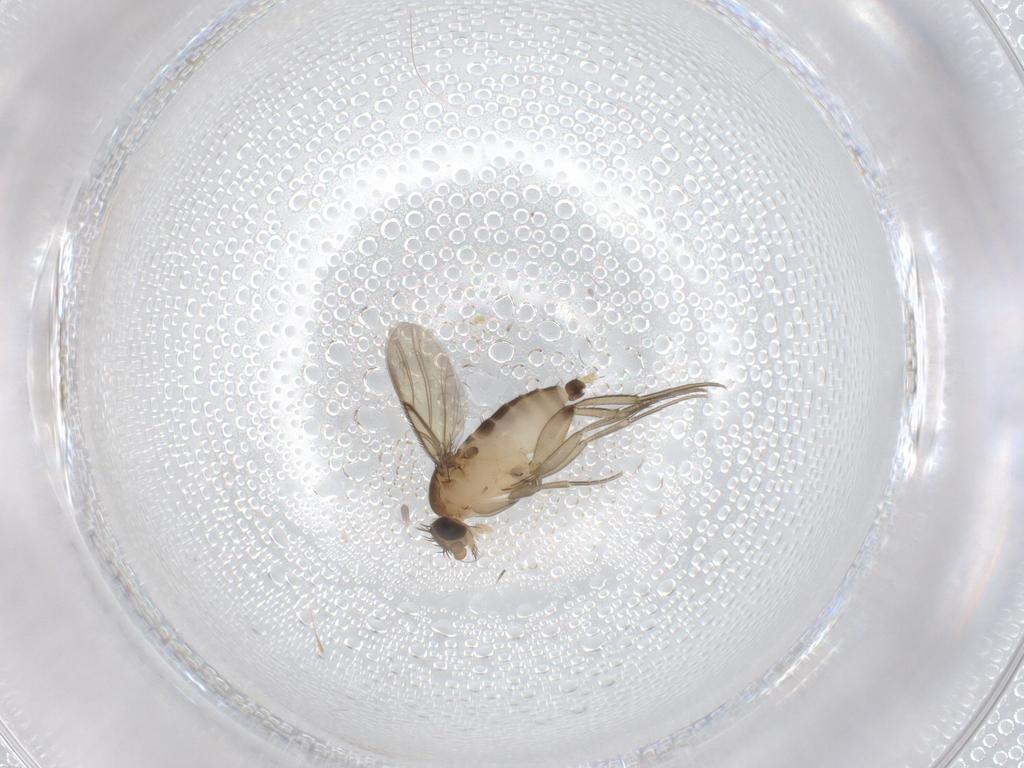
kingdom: Animalia
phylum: Arthropoda
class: Insecta
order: Diptera
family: Phoridae
